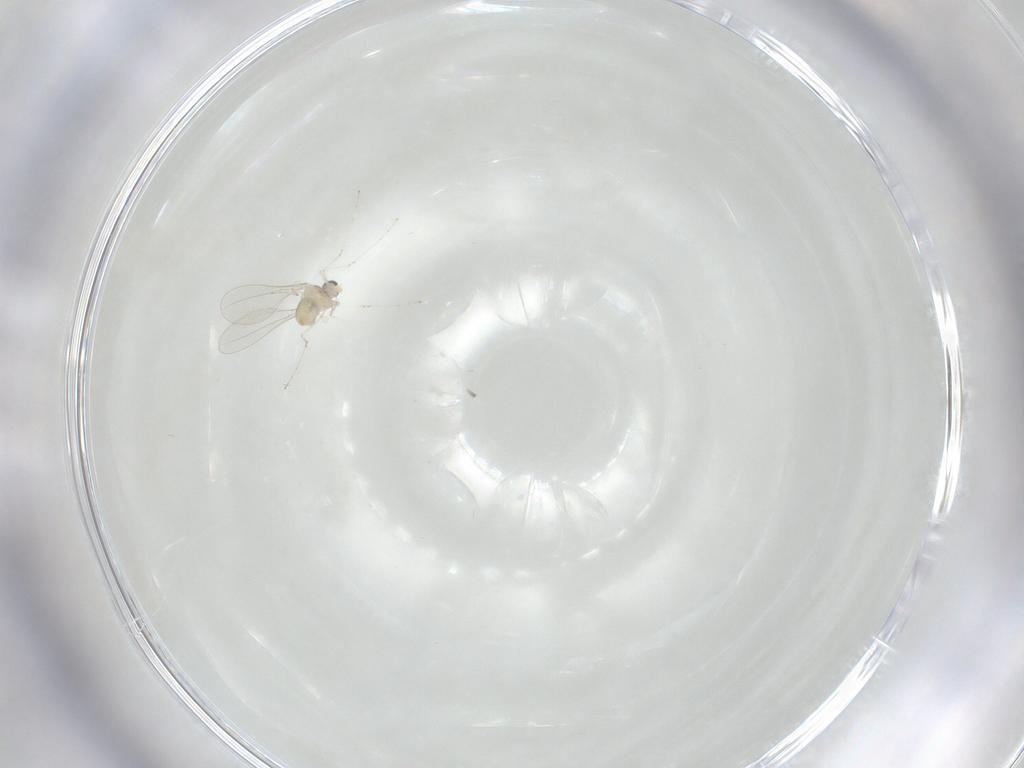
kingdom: Animalia
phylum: Arthropoda
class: Insecta
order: Diptera
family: Cecidomyiidae
